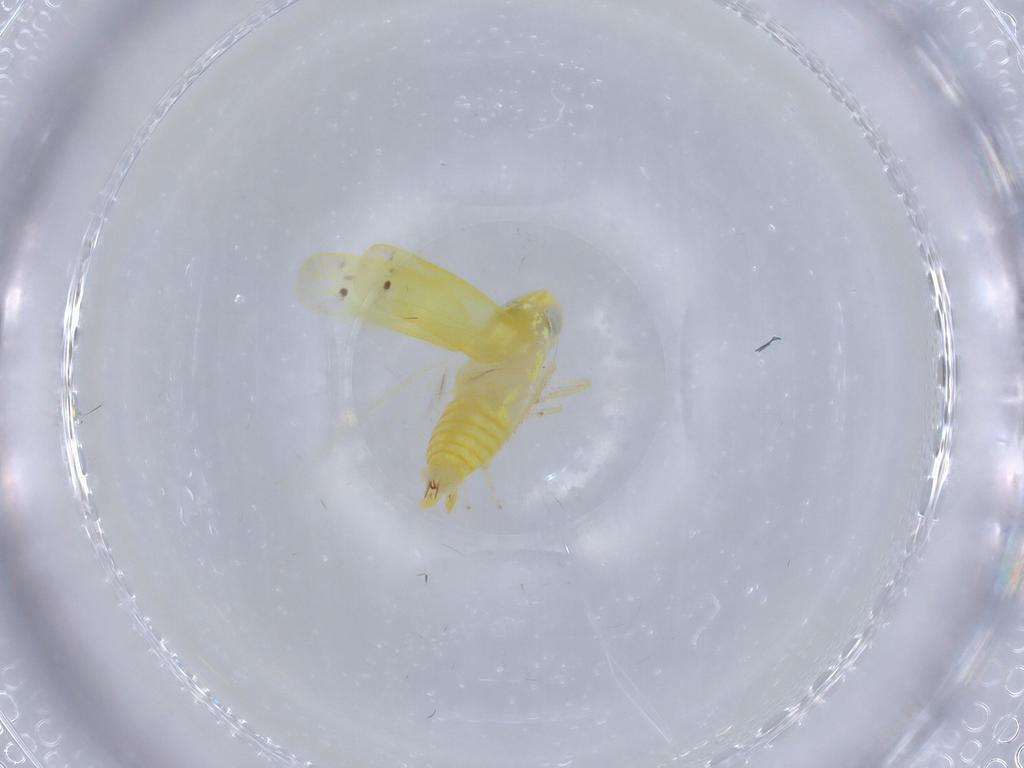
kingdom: Animalia
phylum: Arthropoda
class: Insecta
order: Hemiptera
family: Cicadellidae
